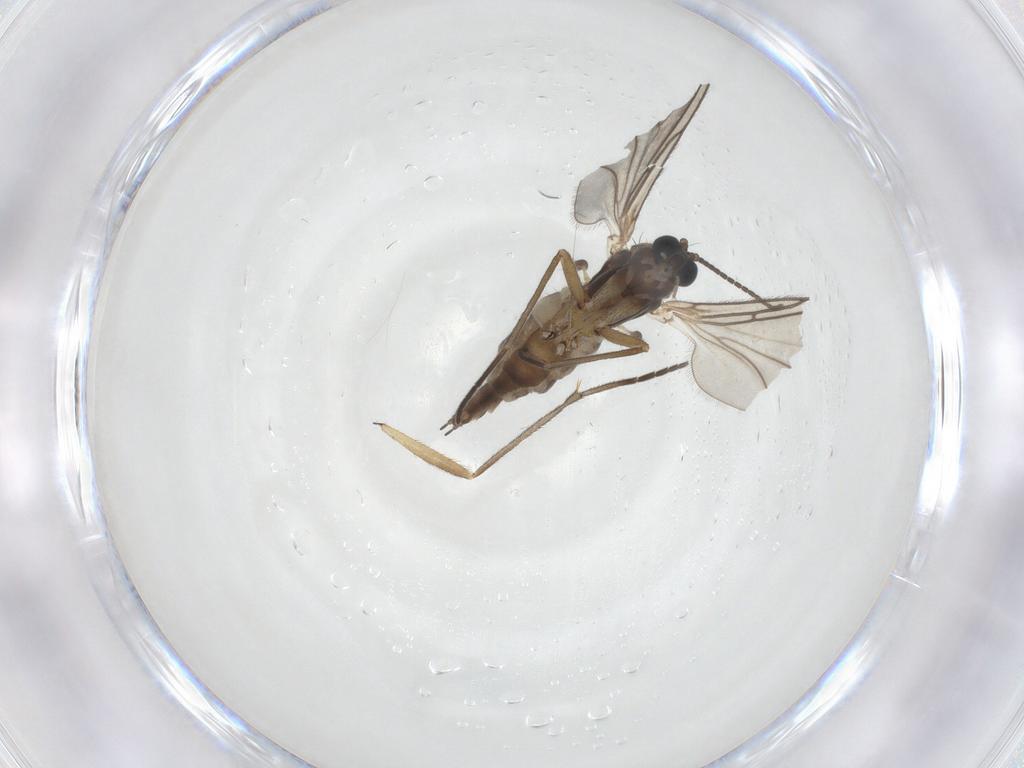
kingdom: Animalia
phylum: Arthropoda
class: Insecta
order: Diptera
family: Sciaridae
